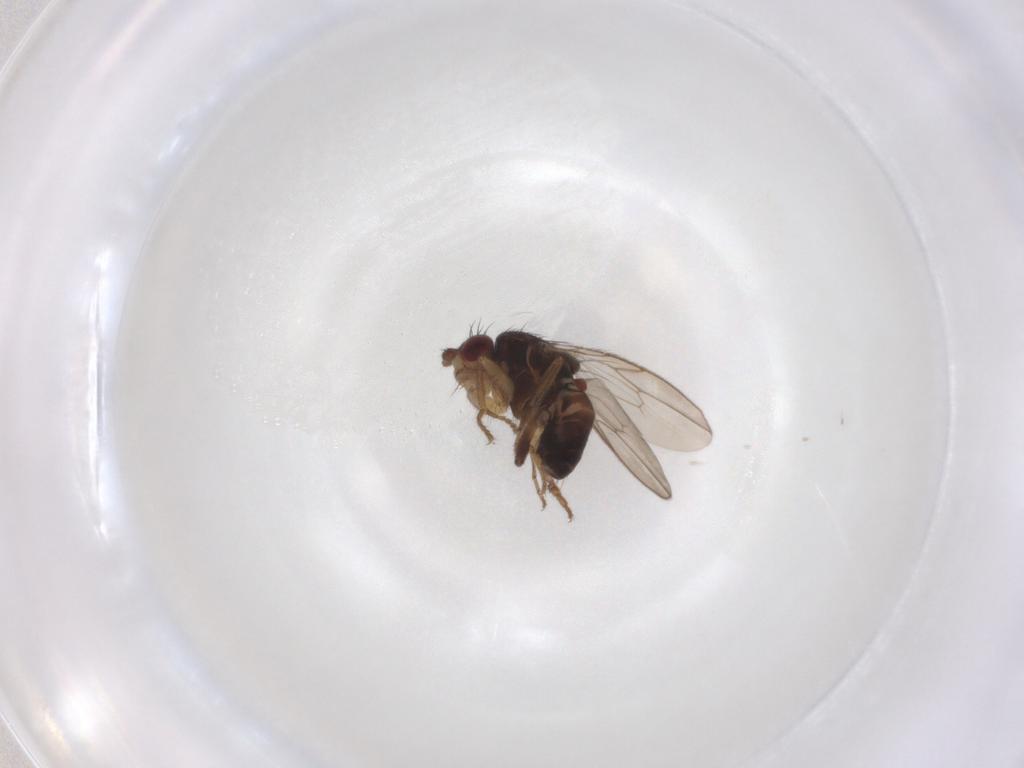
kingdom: Animalia
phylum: Arthropoda
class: Insecta
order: Diptera
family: Sphaeroceridae
